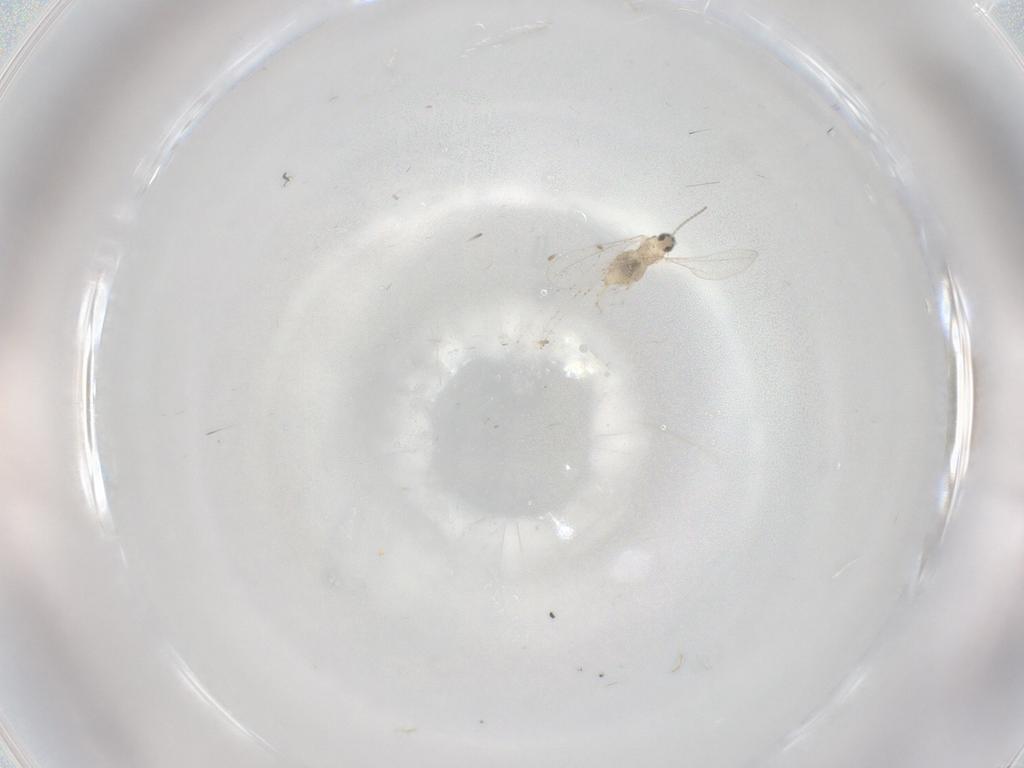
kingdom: Animalia
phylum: Arthropoda
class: Insecta
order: Diptera
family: Cecidomyiidae
